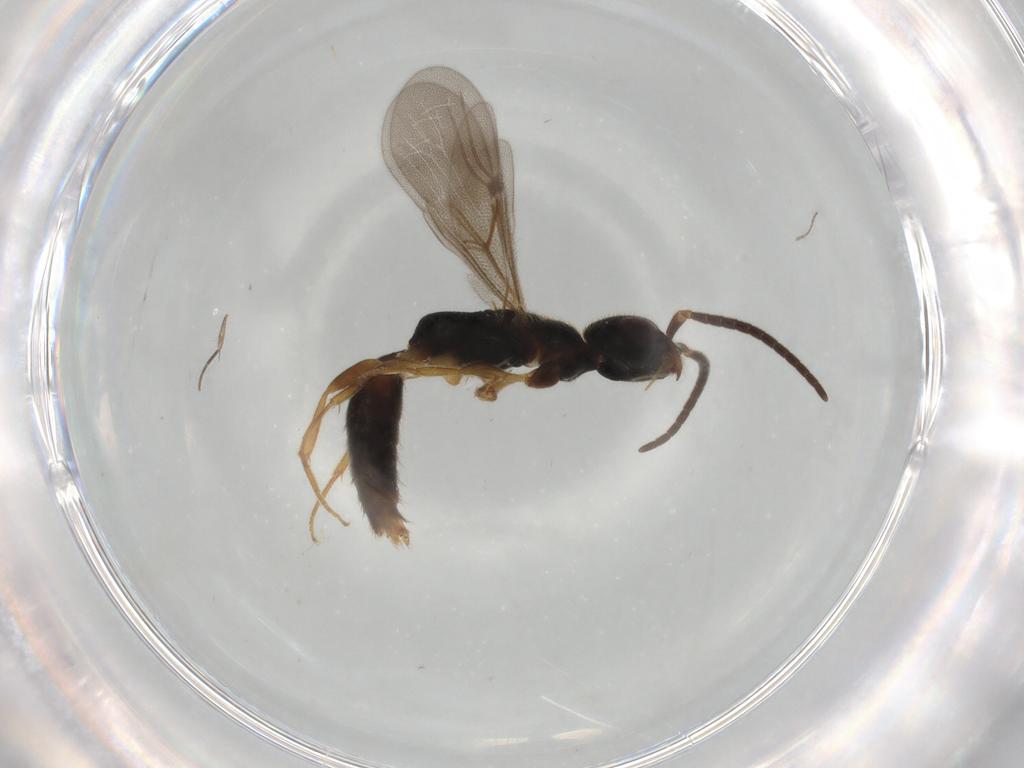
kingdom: Animalia
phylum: Arthropoda
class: Insecta
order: Hymenoptera
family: Bethylidae
